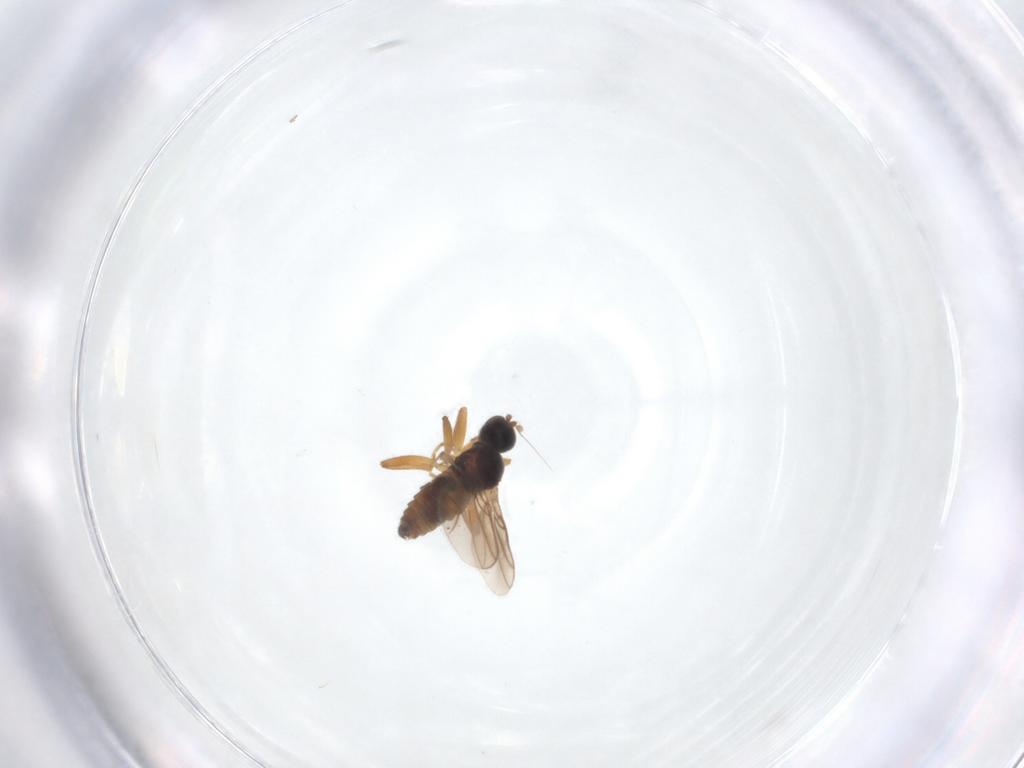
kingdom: Animalia
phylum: Arthropoda
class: Insecta
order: Diptera
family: Hybotidae
